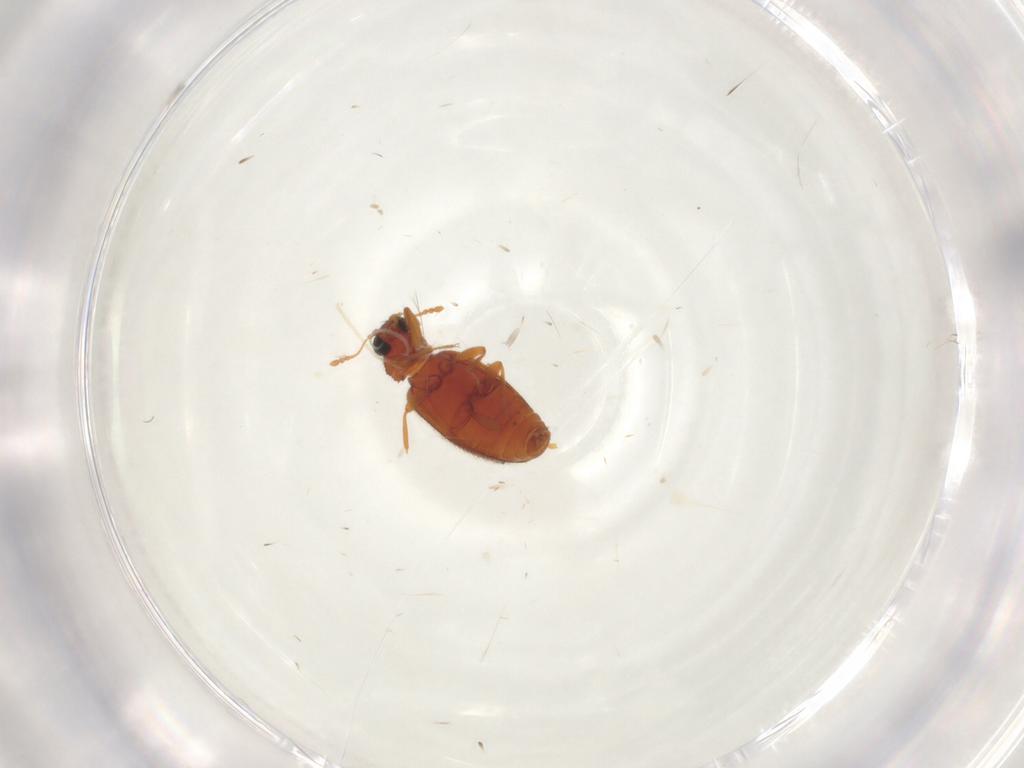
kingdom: Animalia
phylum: Arthropoda
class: Insecta
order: Coleoptera
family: Latridiidae
